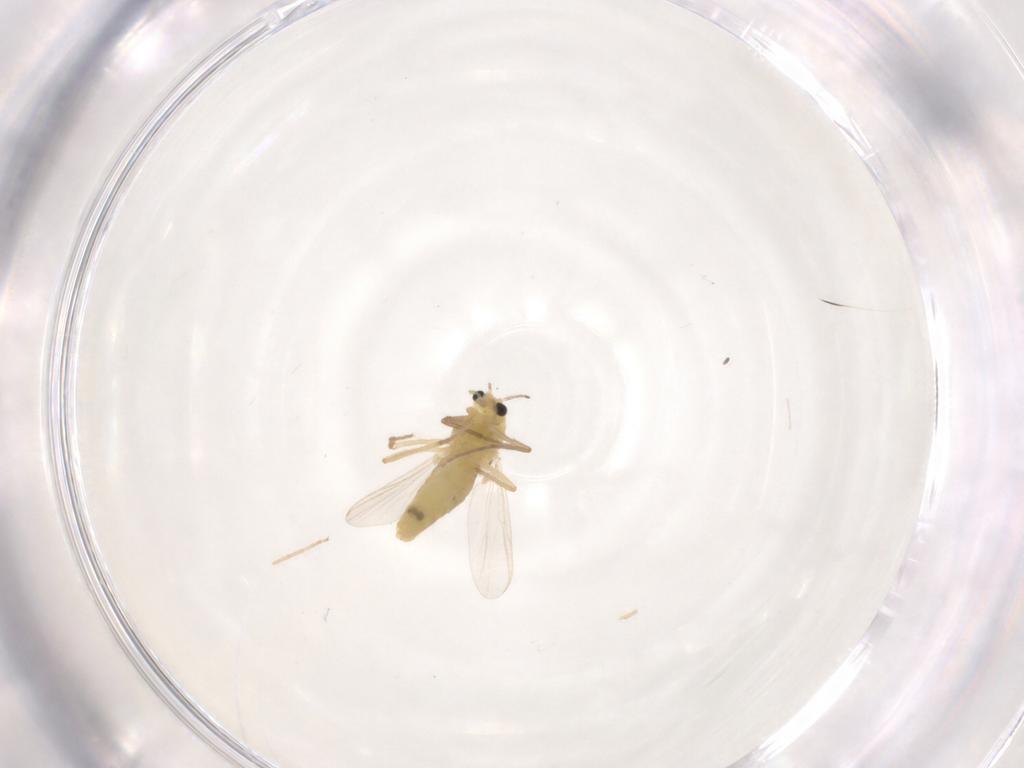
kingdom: Animalia
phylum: Arthropoda
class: Insecta
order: Diptera
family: Chironomidae
